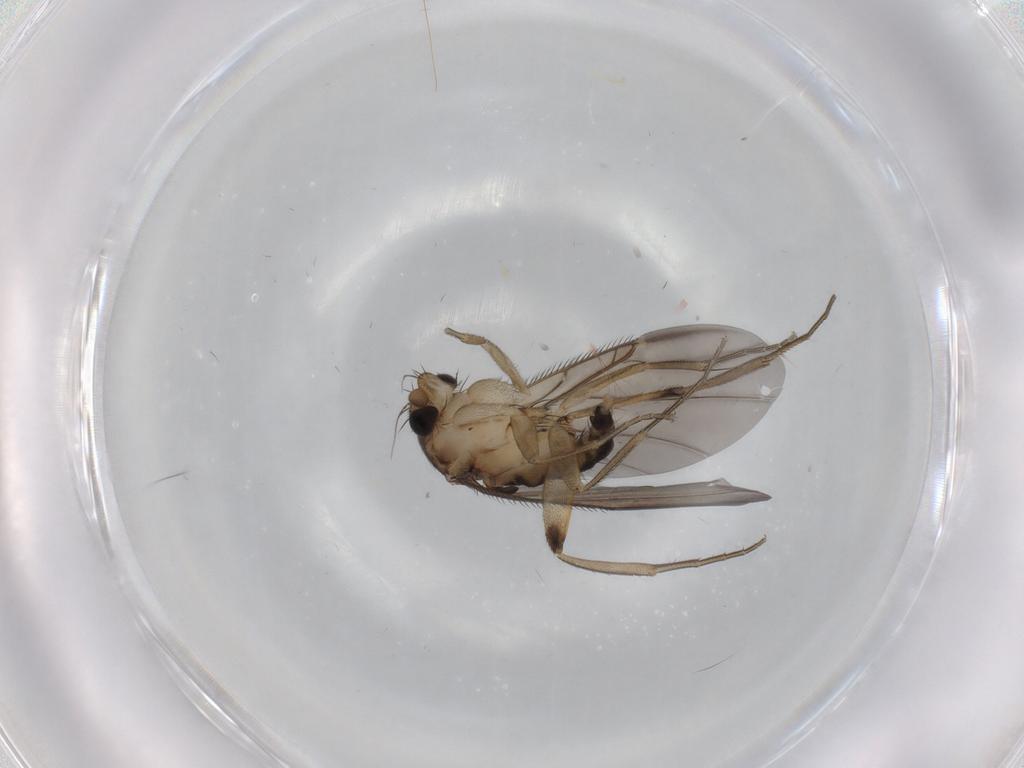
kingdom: Animalia
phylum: Arthropoda
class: Insecta
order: Diptera
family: Phoridae
